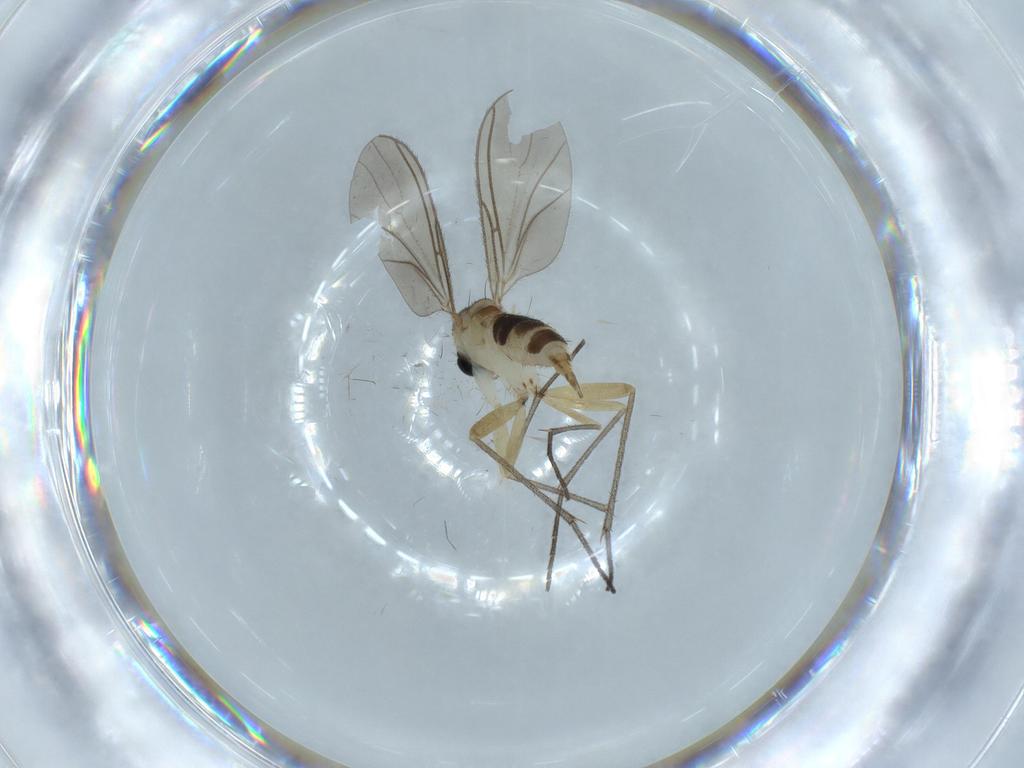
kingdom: Animalia
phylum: Arthropoda
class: Insecta
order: Diptera
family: Sciaridae
